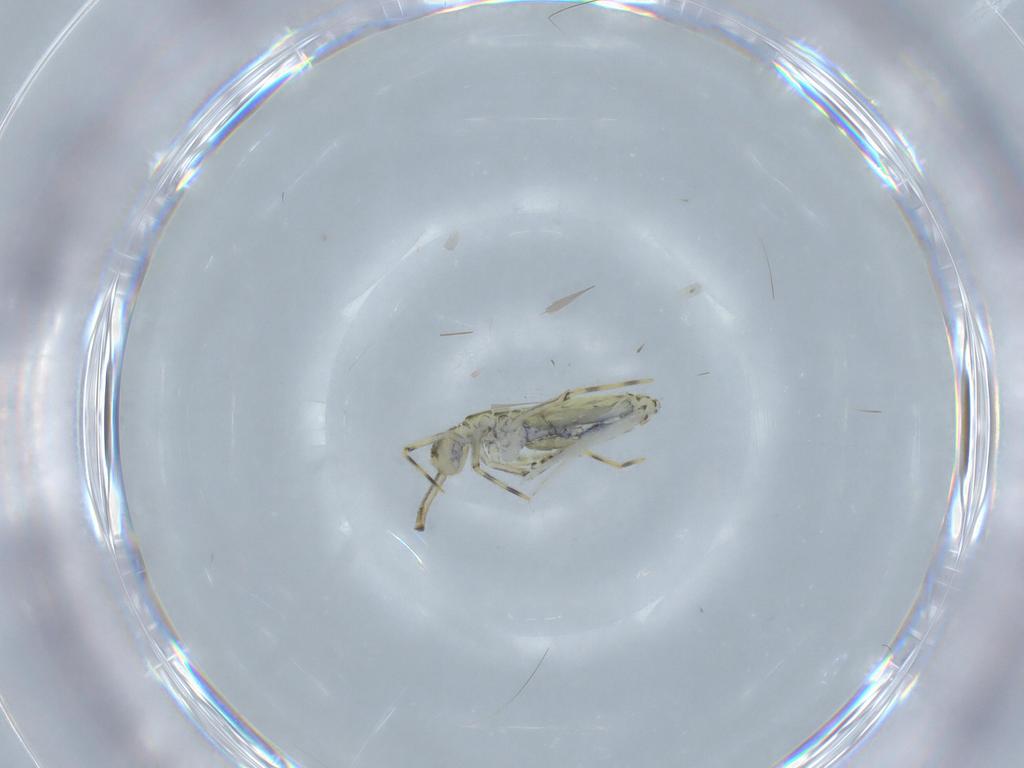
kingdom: Animalia
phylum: Arthropoda
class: Collembola
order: Entomobryomorpha
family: Paronellidae
